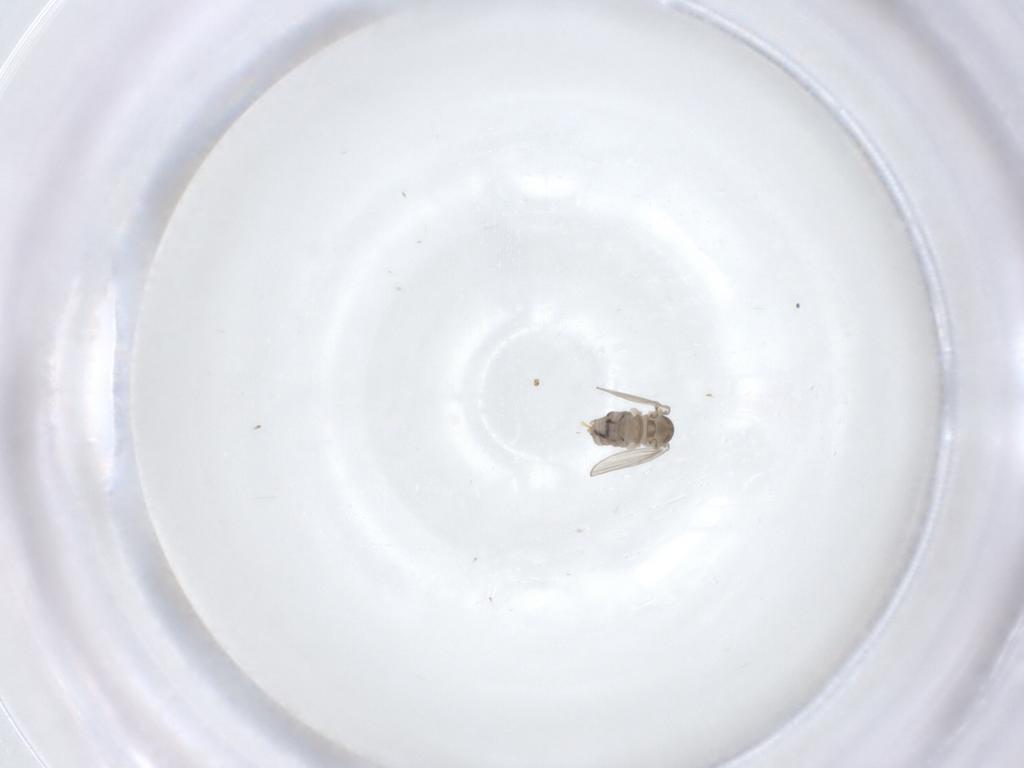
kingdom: Animalia
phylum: Arthropoda
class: Insecta
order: Diptera
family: Psychodidae
